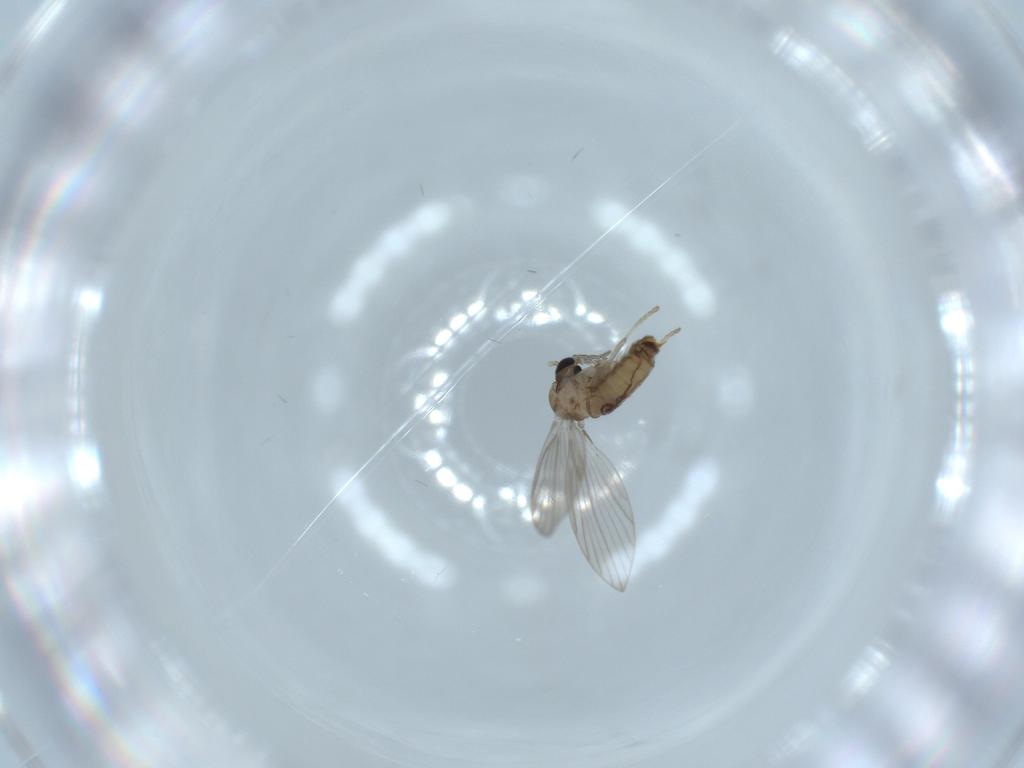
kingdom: Animalia
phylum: Arthropoda
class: Insecta
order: Diptera
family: Psychodidae
